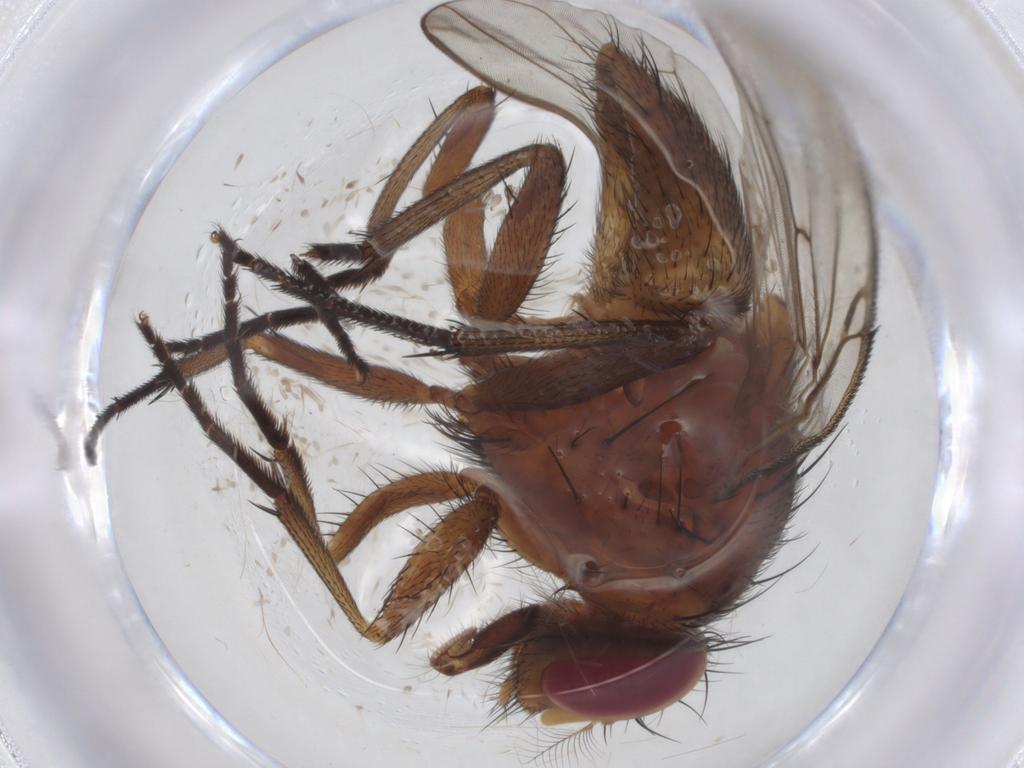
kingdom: Animalia
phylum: Arthropoda
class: Insecta
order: Diptera
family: Muscidae
